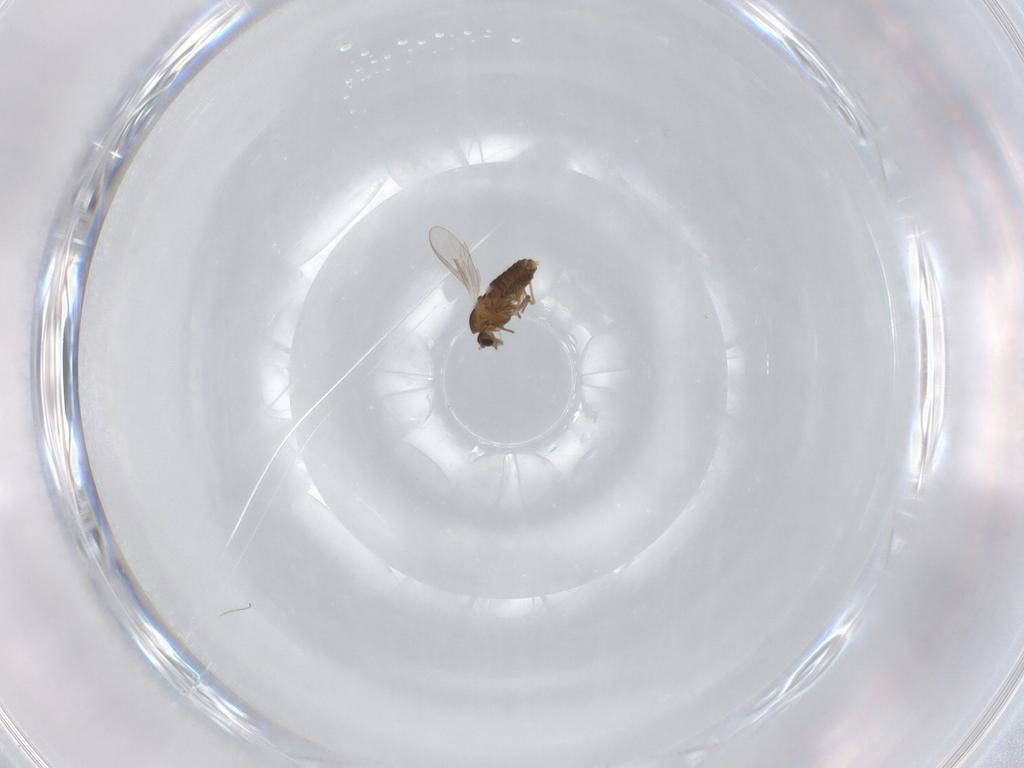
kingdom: Animalia
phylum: Arthropoda
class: Insecta
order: Diptera
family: Chironomidae
